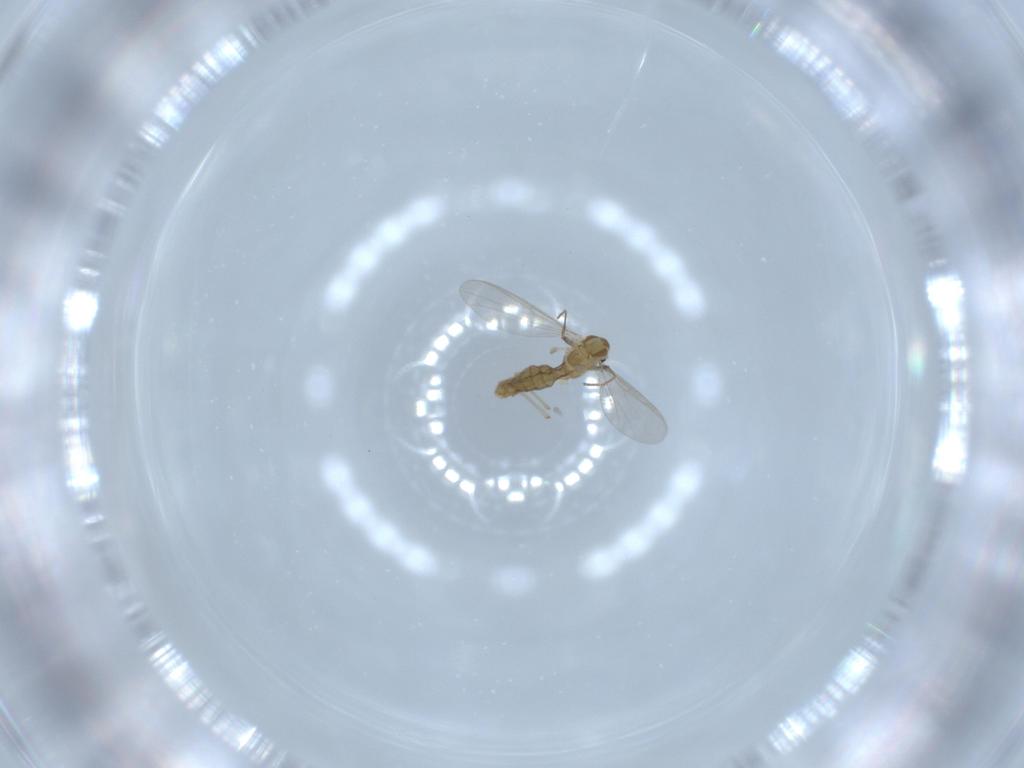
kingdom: Animalia
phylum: Arthropoda
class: Insecta
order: Diptera
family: Chironomidae
